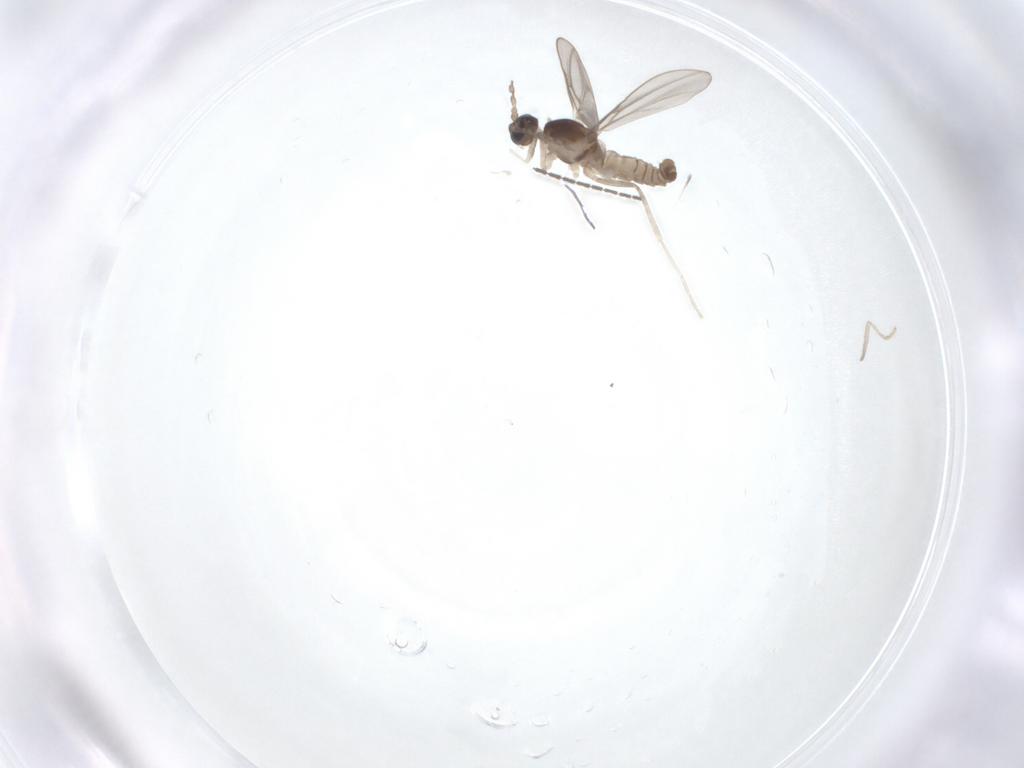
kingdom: Animalia
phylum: Arthropoda
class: Insecta
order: Diptera
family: Cecidomyiidae
